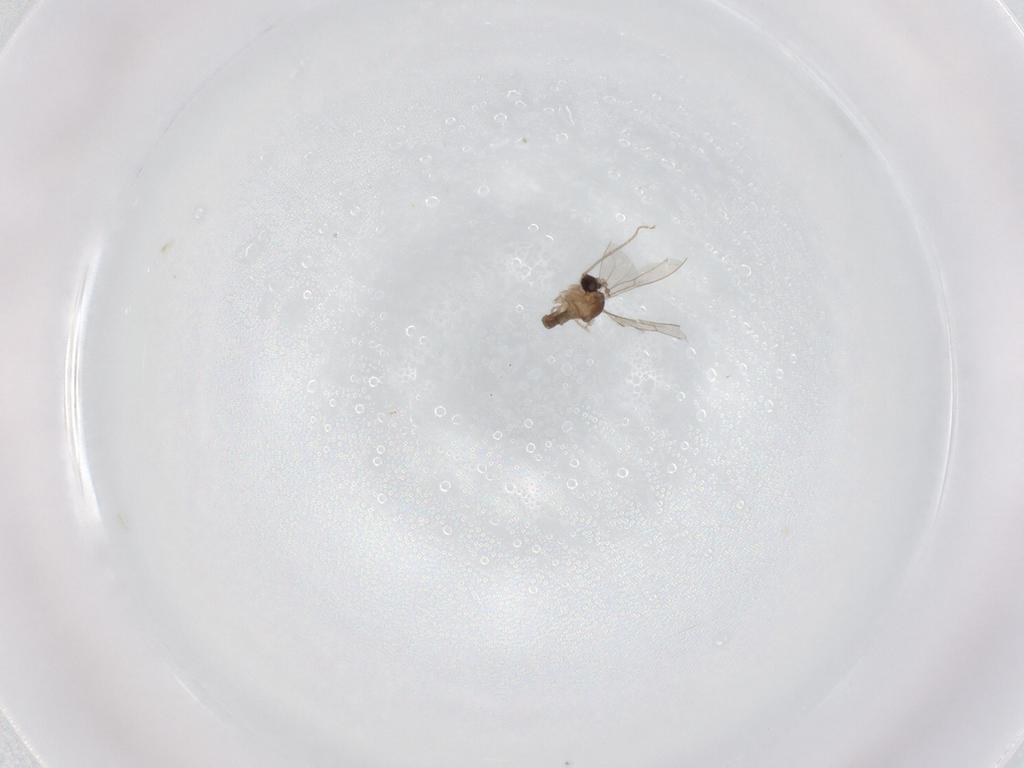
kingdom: Animalia
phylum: Arthropoda
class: Insecta
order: Diptera
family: Cecidomyiidae
